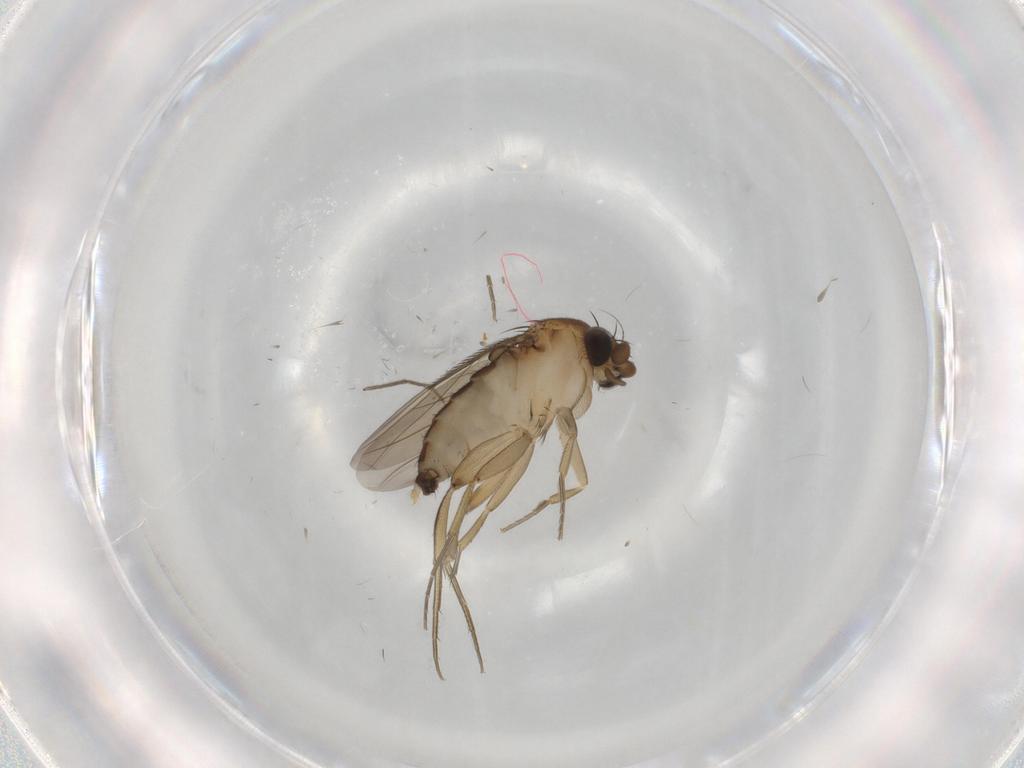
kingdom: Animalia
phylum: Arthropoda
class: Insecta
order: Diptera
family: Phoridae
